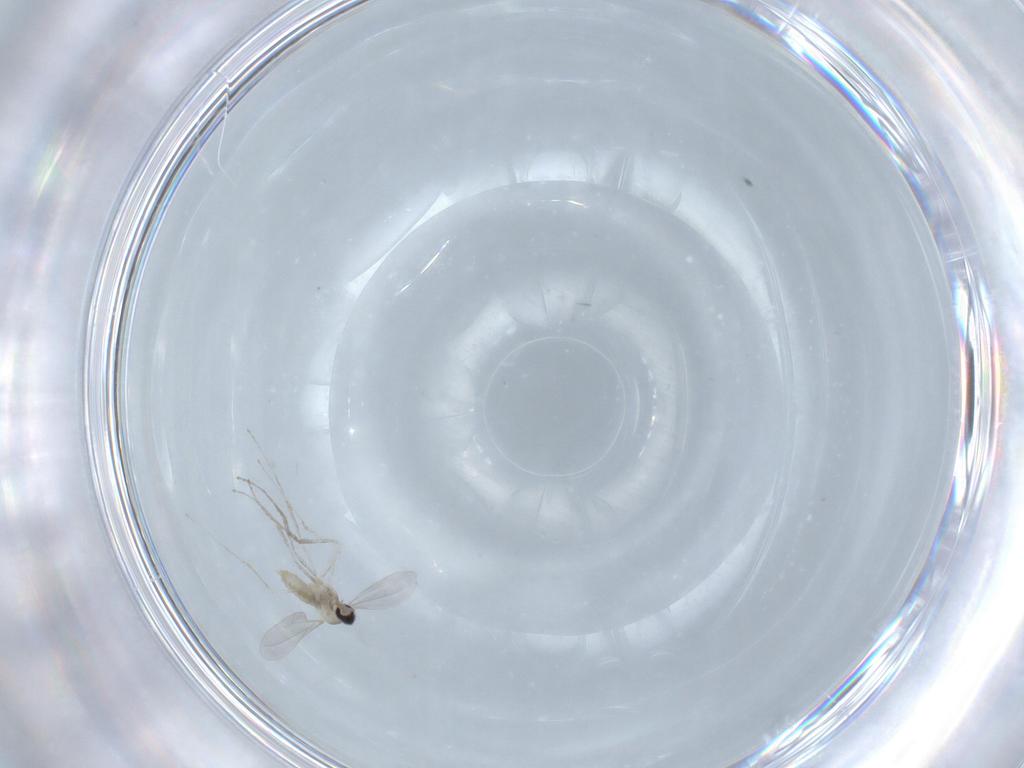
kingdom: Animalia
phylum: Arthropoda
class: Insecta
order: Diptera
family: Cecidomyiidae
